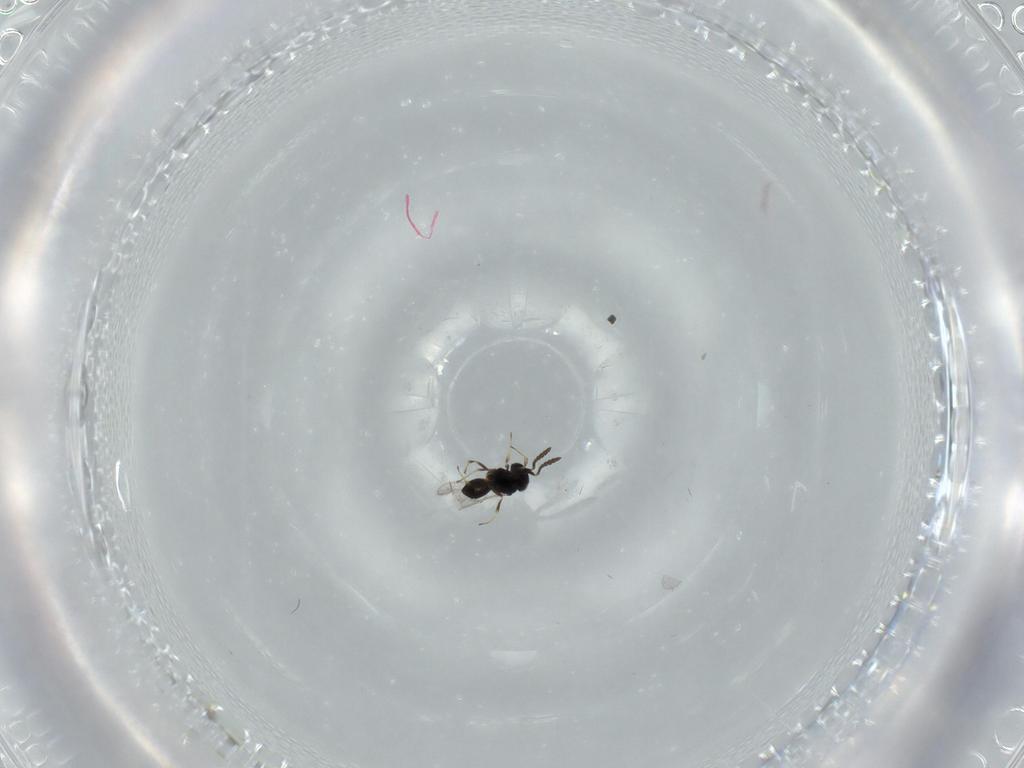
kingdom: Animalia
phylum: Arthropoda
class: Insecta
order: Hymenoptera
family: Scelionidae
